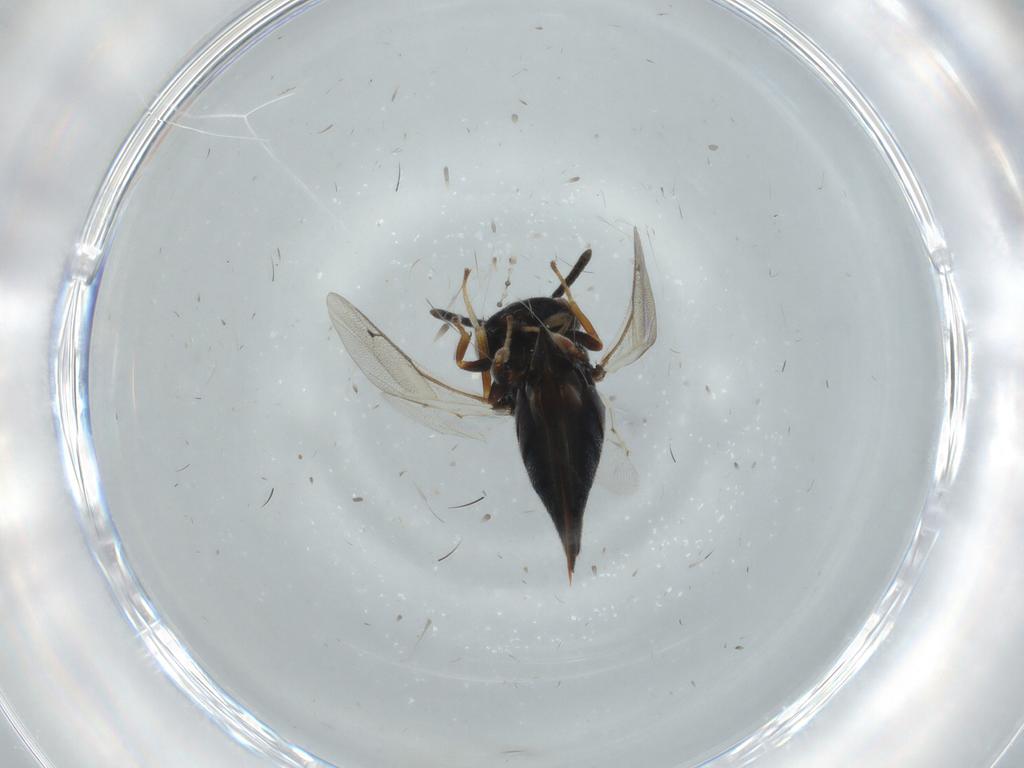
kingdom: Animalia
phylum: Arthropoda
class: Insecta
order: Hymenoptera
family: Pteromalidae
